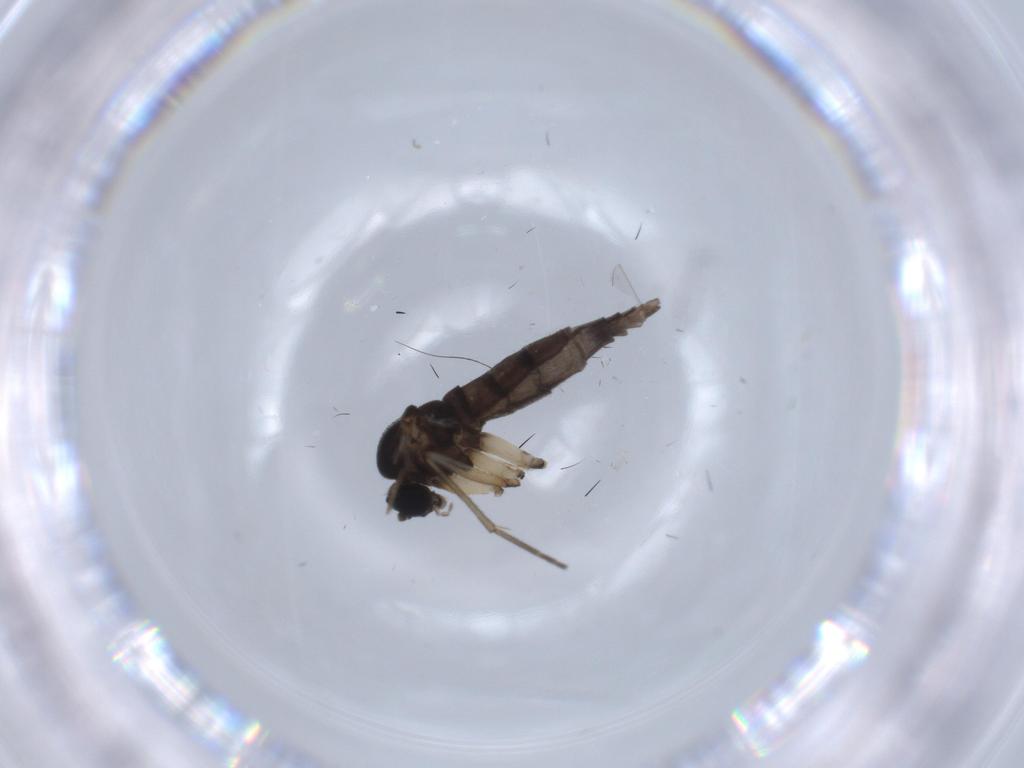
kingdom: Animalia
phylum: Arthropoda
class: Insecta
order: Diptera
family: Sciaridae
